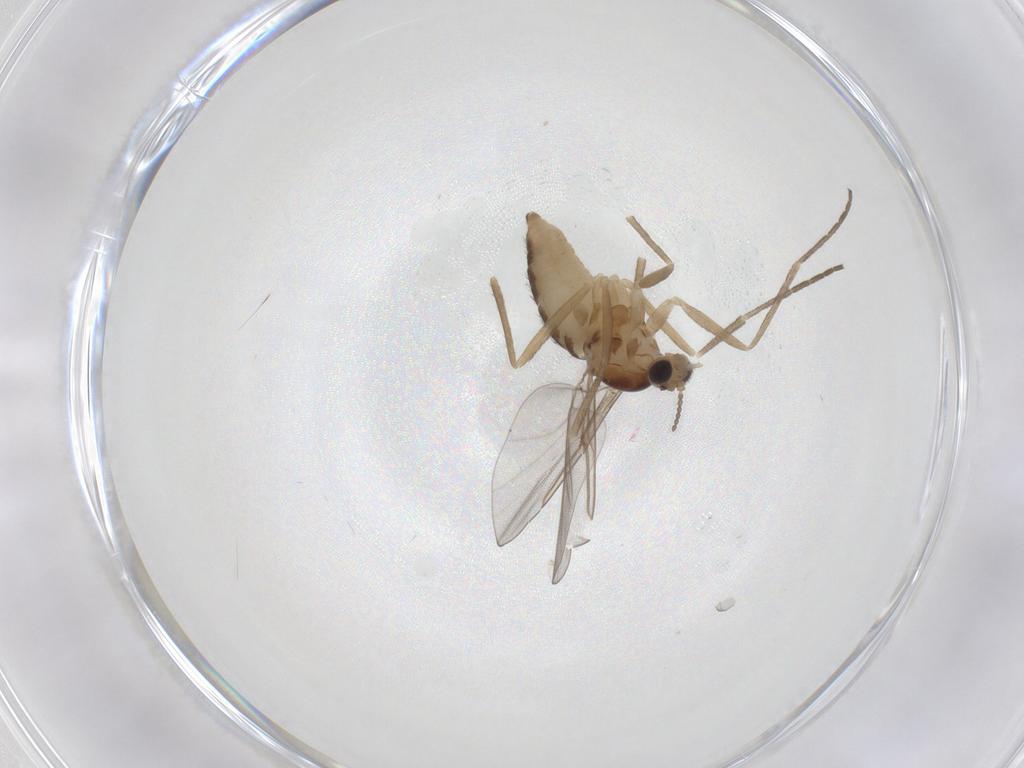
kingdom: Animalia
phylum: Arthropoda
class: Insecta
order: Diptera
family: Cecidomyiidae
